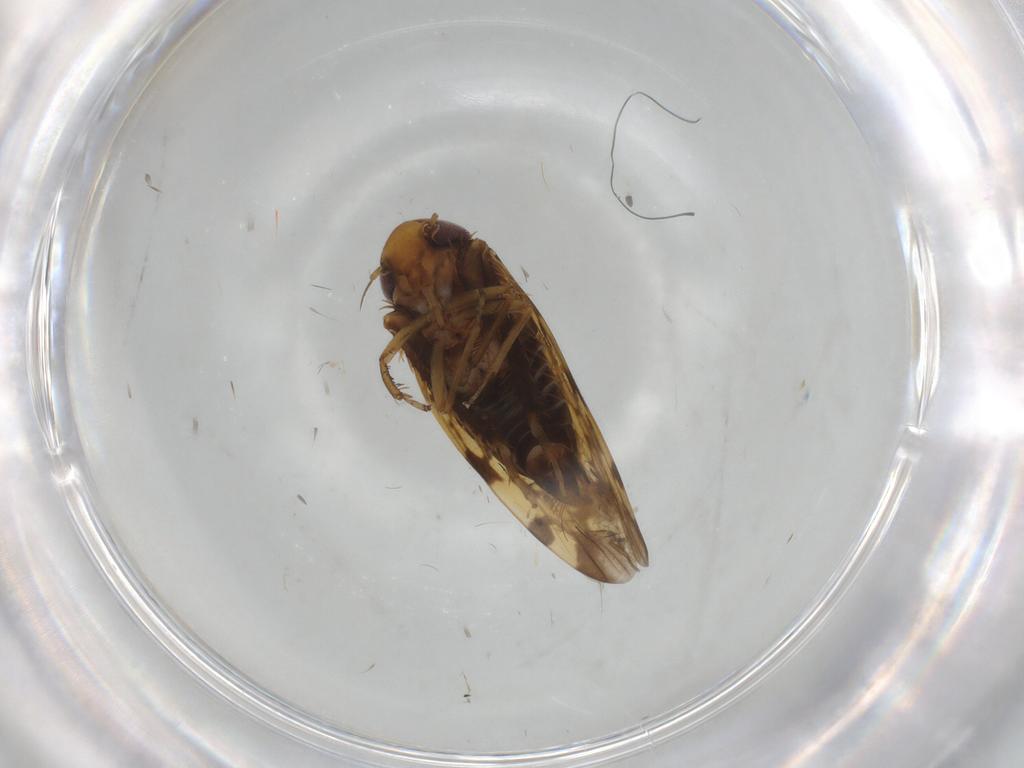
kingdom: Animalia
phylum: Arthropoda
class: Insecta
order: Hemiptera
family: Cicadellidae
